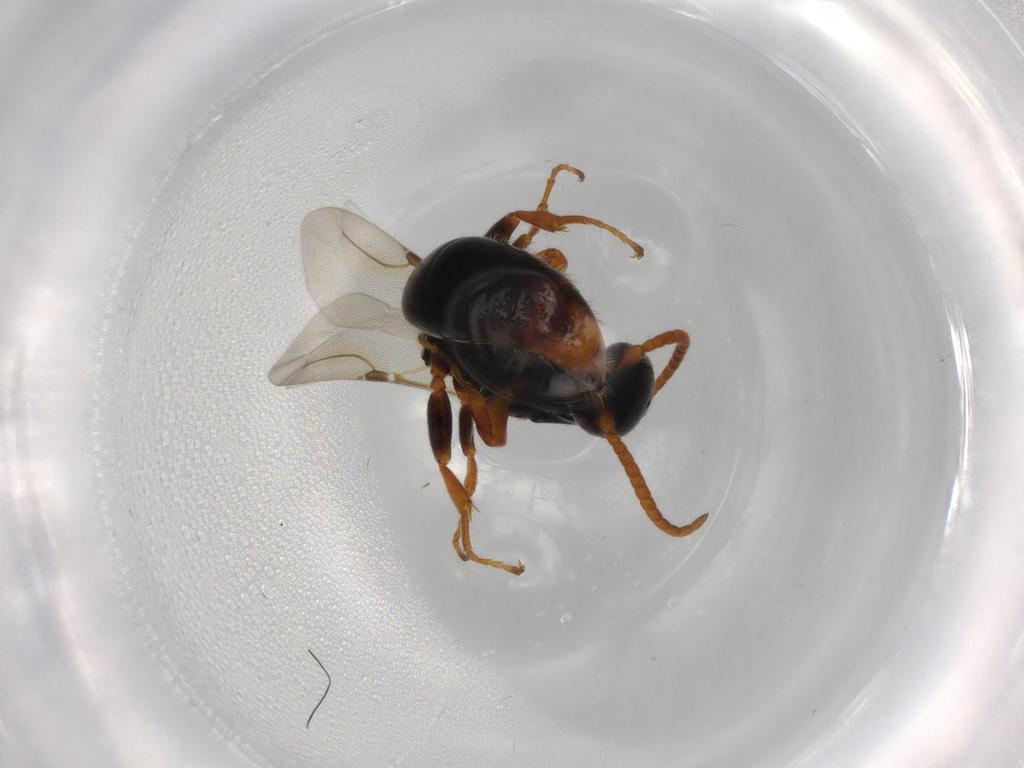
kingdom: Animalia
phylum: Arthropoda
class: Insecta
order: Hymenoptera
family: Bethylidae
